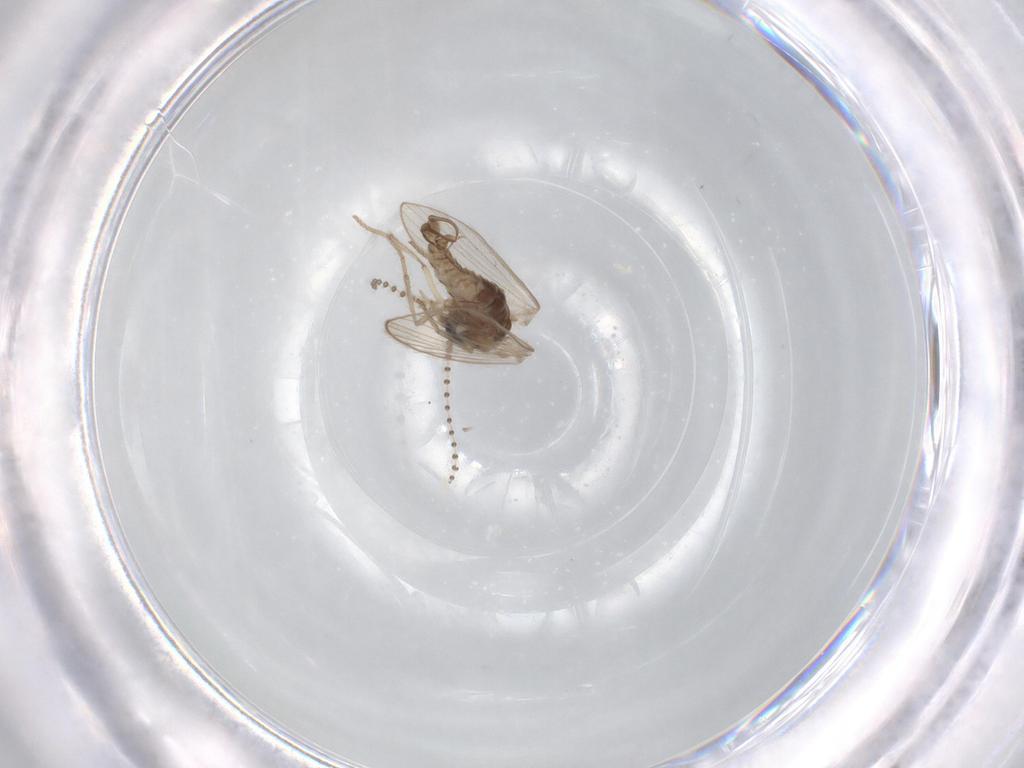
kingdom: Animalia
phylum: Arthropoda
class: Insecta
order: Diptera
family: Psychodidae
